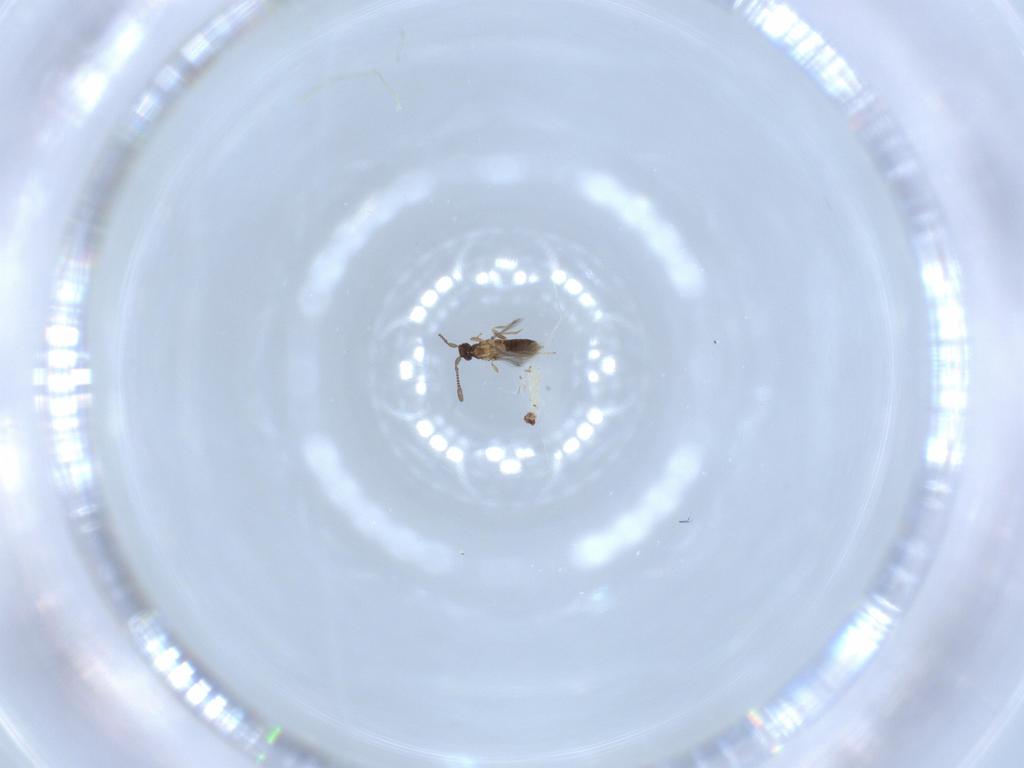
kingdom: Animalia
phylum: Arthropoda
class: Insecta
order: Hymenoptera
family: Mymaridae
